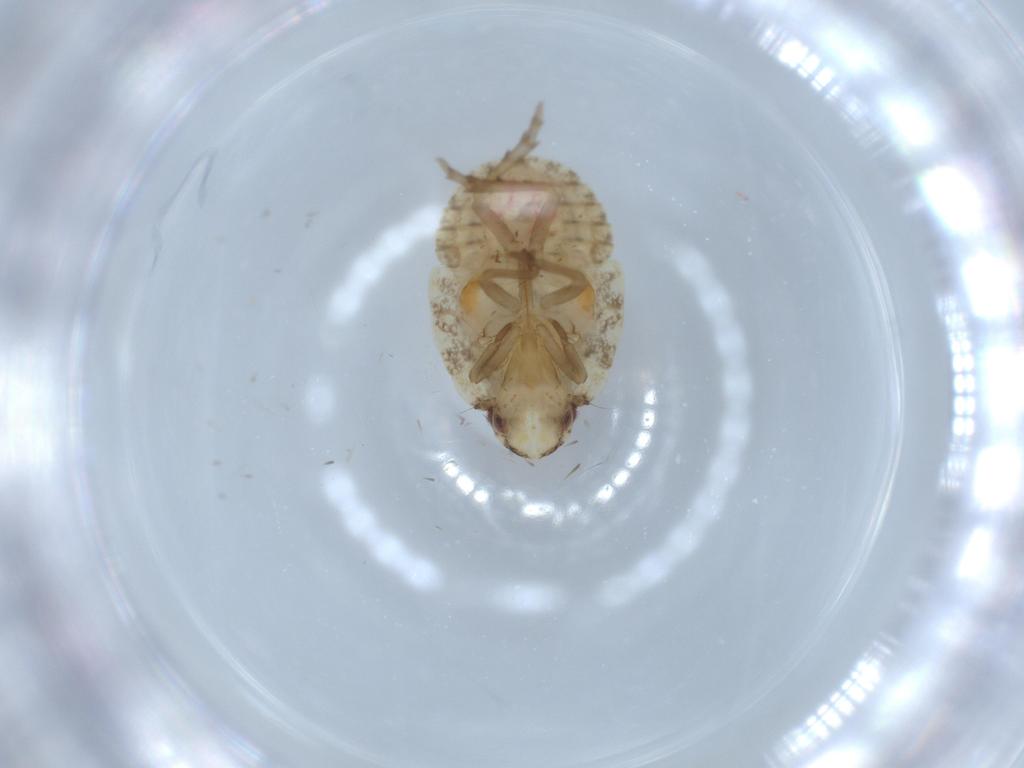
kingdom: Animalia
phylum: Arthropoda
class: Insecta
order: Hemiptera
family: Flatidae
